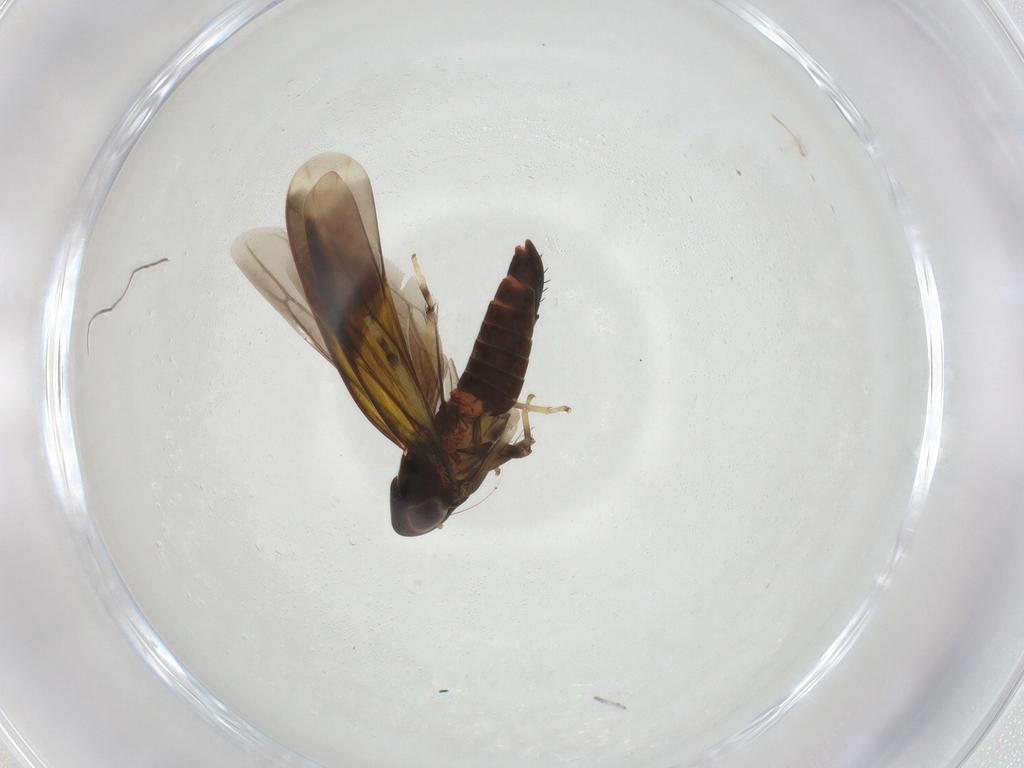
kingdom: Animalia
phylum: Arthropoda
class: Insecta
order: Hemiptera
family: Cicadellidae
